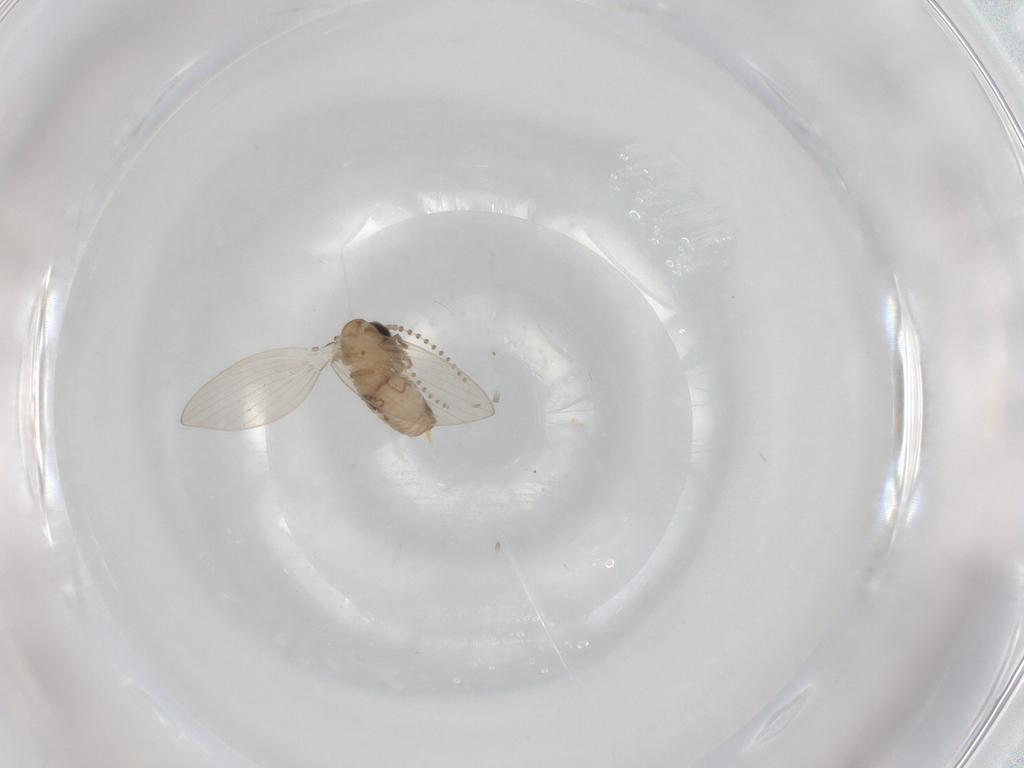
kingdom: Animalia
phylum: Arthropoda
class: Insecta
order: Diptera
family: Psychodidae
